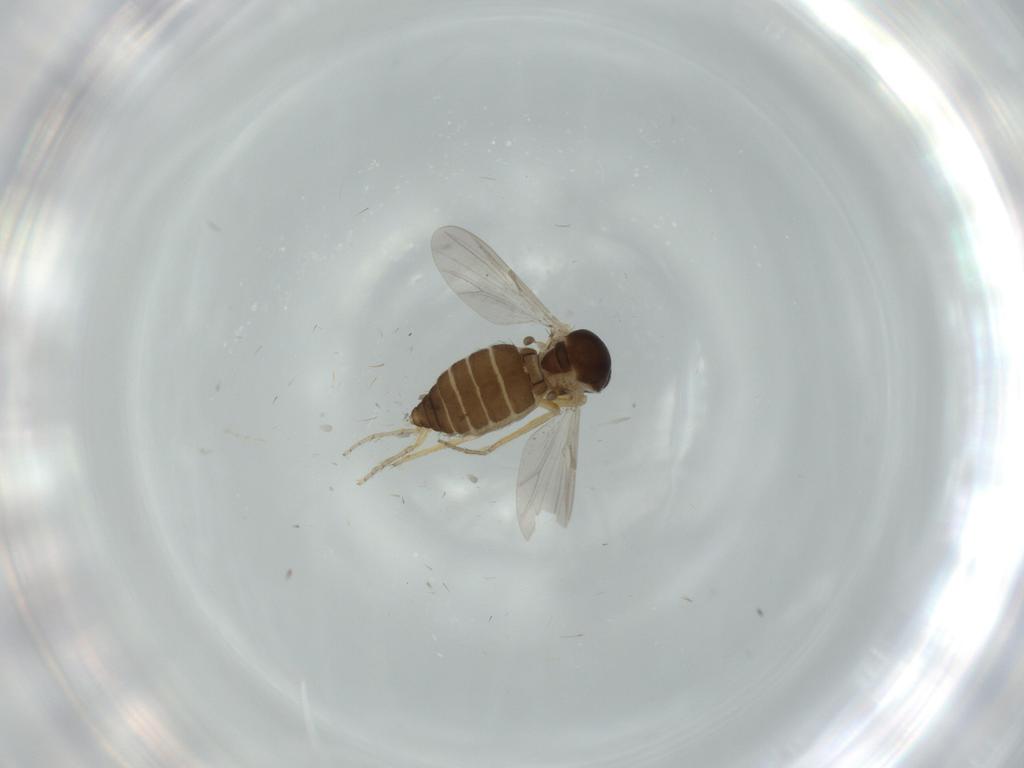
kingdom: Animalia
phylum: Arthropoda
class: Insecta
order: Diptera
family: Ceratopogonidae
